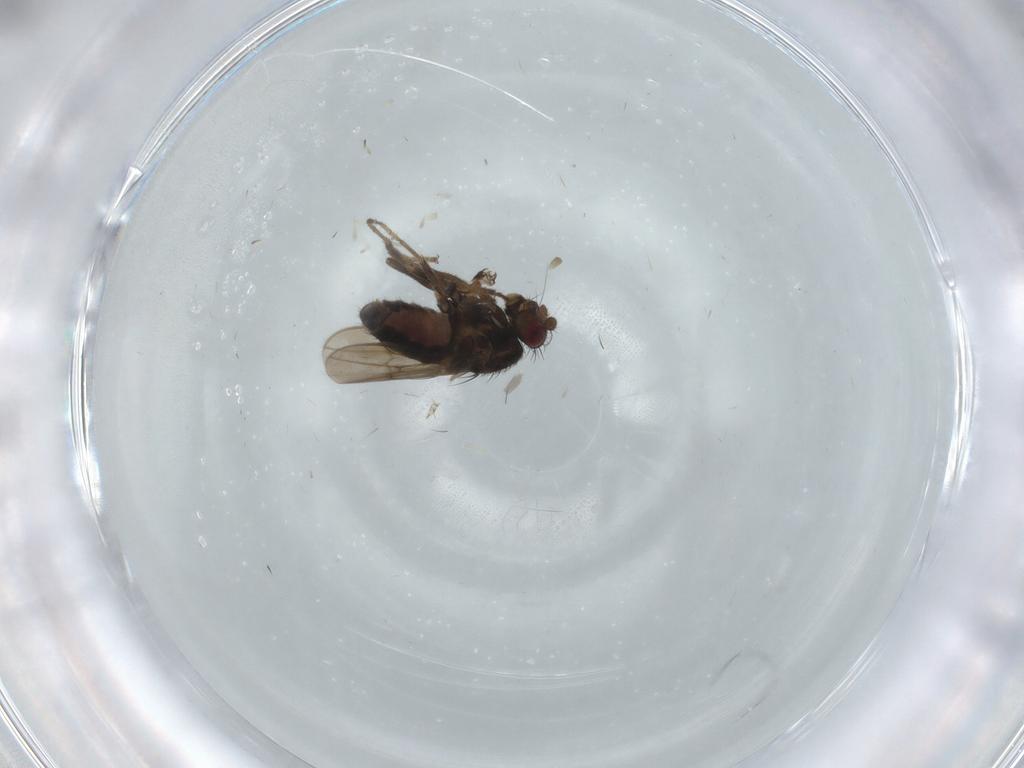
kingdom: Animalia
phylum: Arthropoda
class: Insecta
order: Diptera
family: Sphaeroceridae
